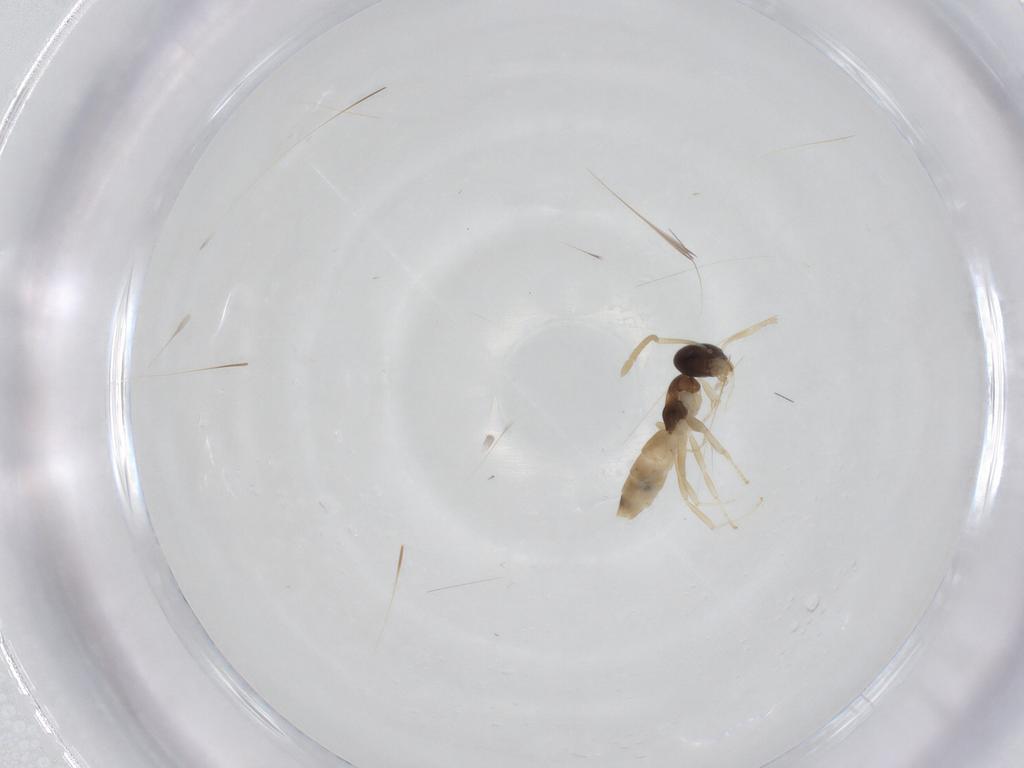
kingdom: Animalia
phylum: Arthropoda
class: Insecta
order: Hymenoptera
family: Formicidae
